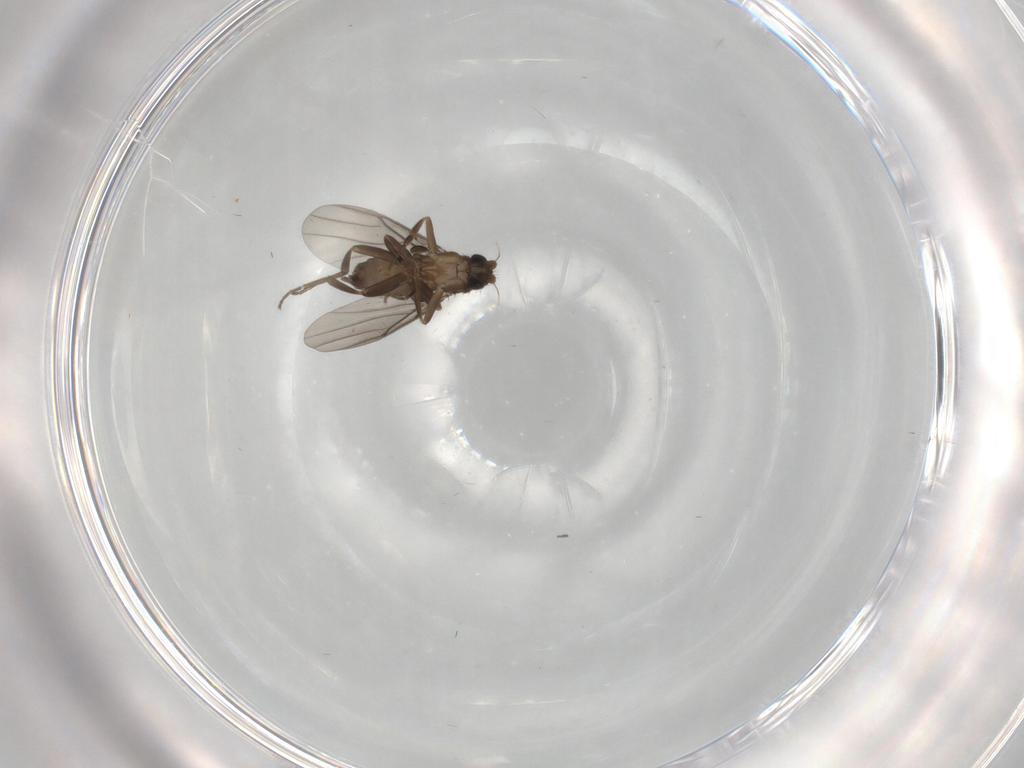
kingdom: Animalia
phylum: Arthropoda
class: Insecta
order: Diptera
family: Phoridae
